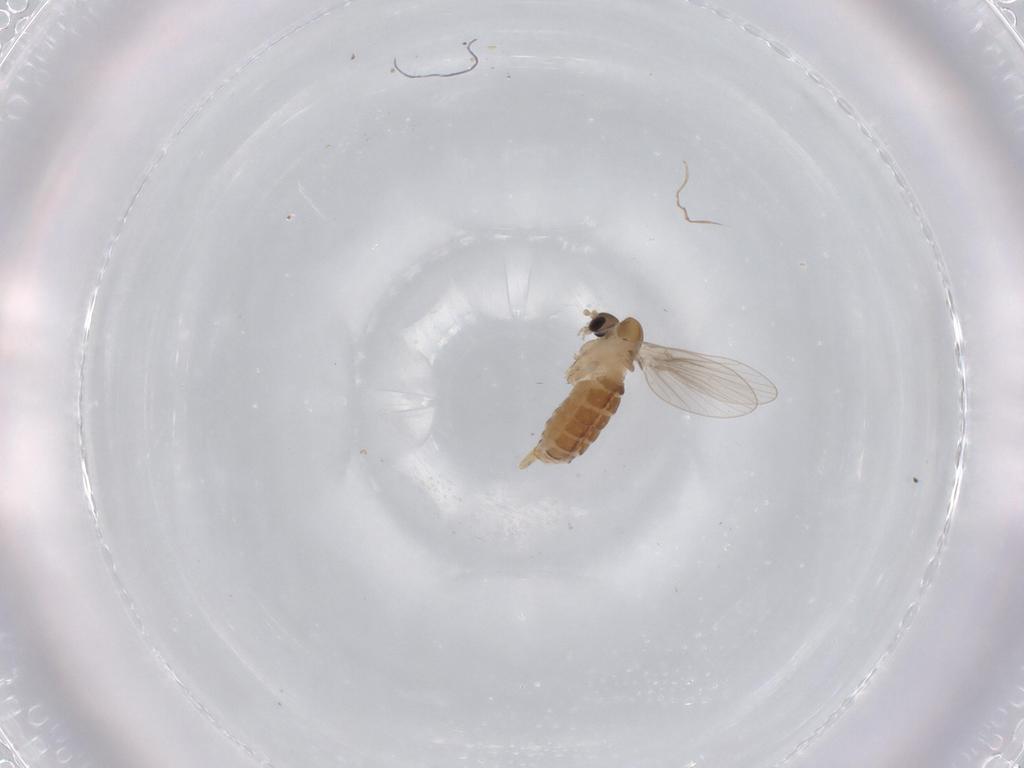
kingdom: Animalia
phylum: Arthropoda
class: Insecta
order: Diptera
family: Psychodidae
